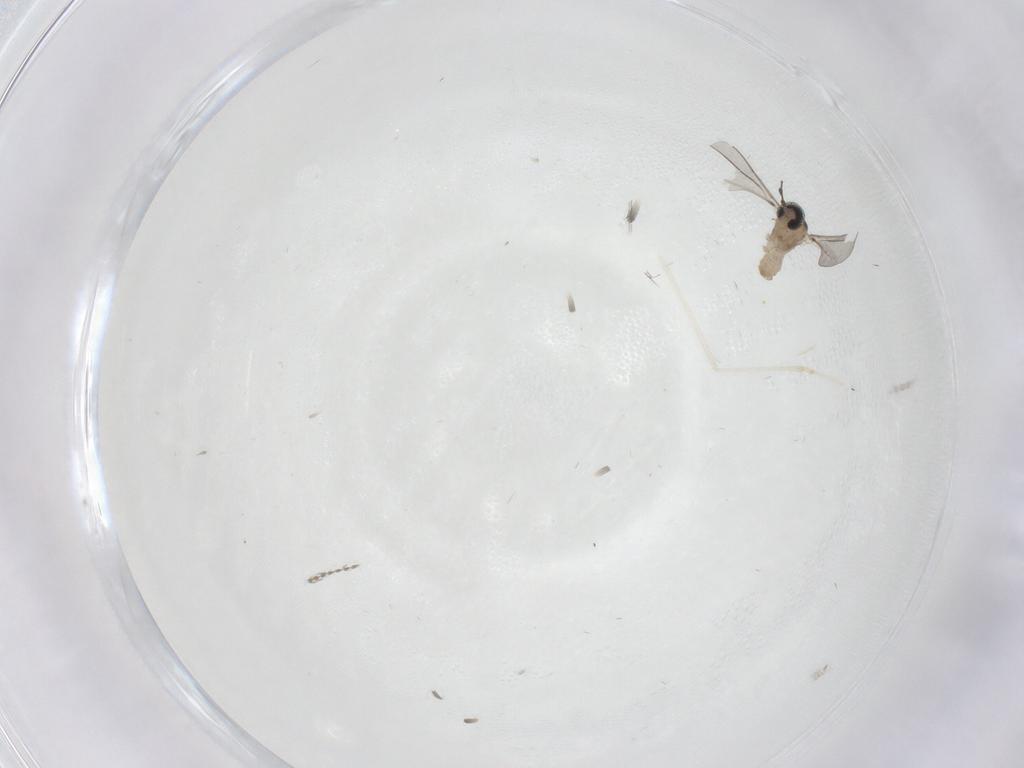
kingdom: Animalia
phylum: Arthropoda
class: Insecta
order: Diptera
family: Cecidomyiidae
